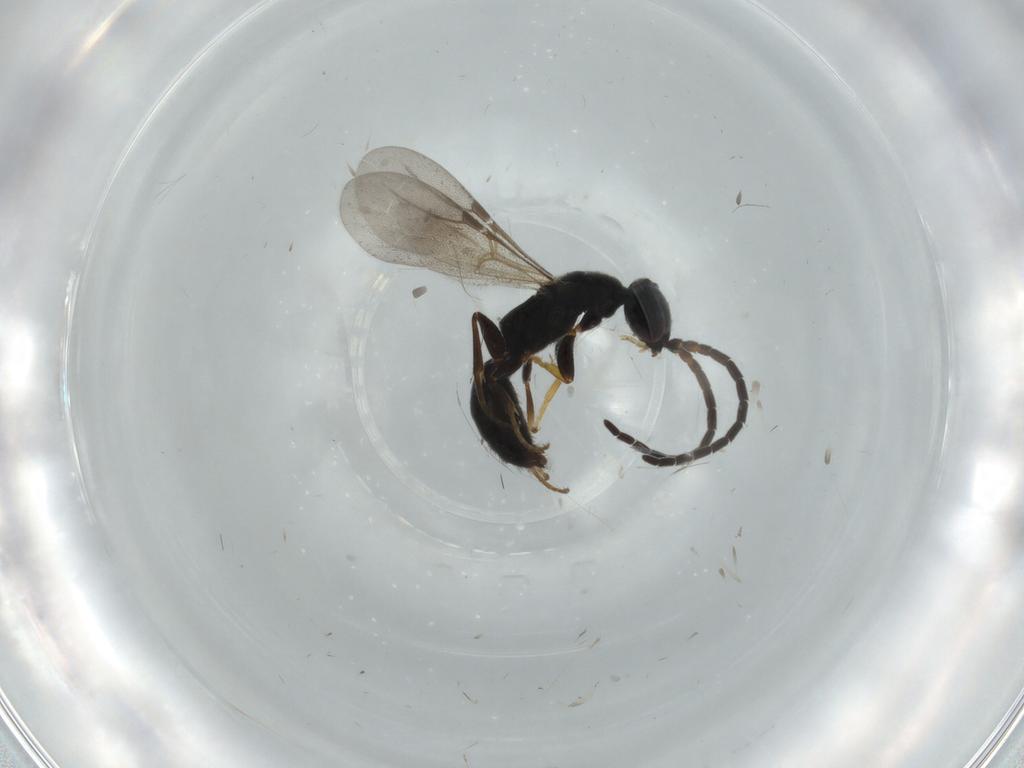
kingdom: Animalia
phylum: Arthropoda
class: Insecta
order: Hymenoptera
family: Bethylidae
